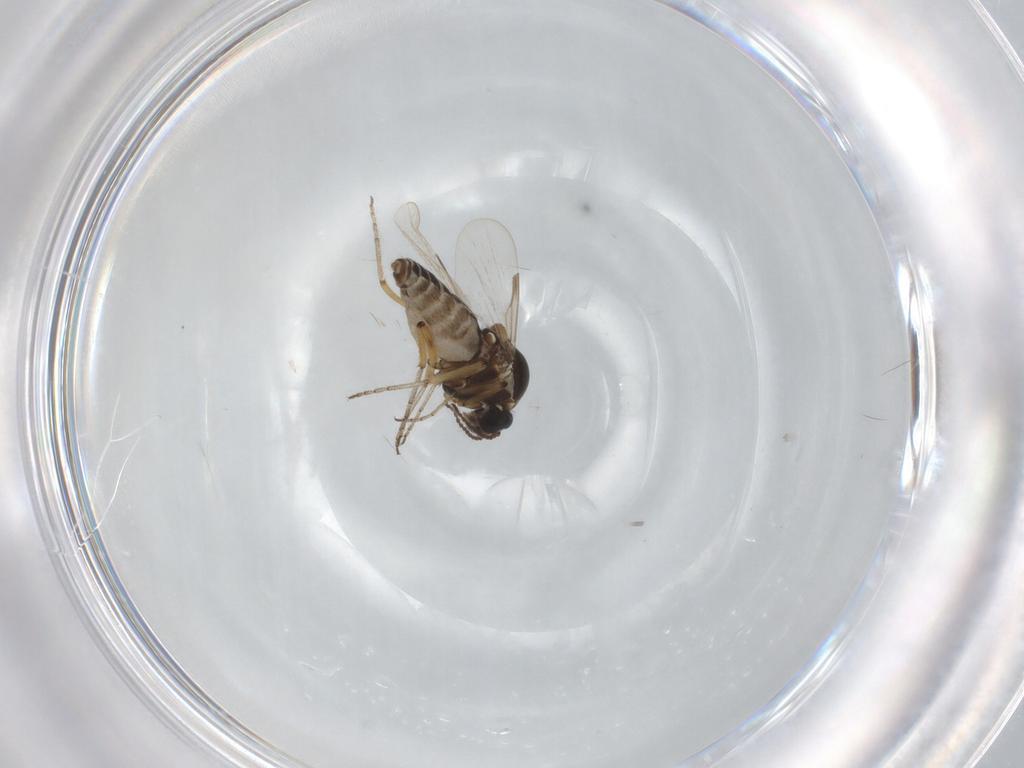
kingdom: Animalia
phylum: Arthropoda
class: Insecta
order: Diptera
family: Ceratopogonidae
